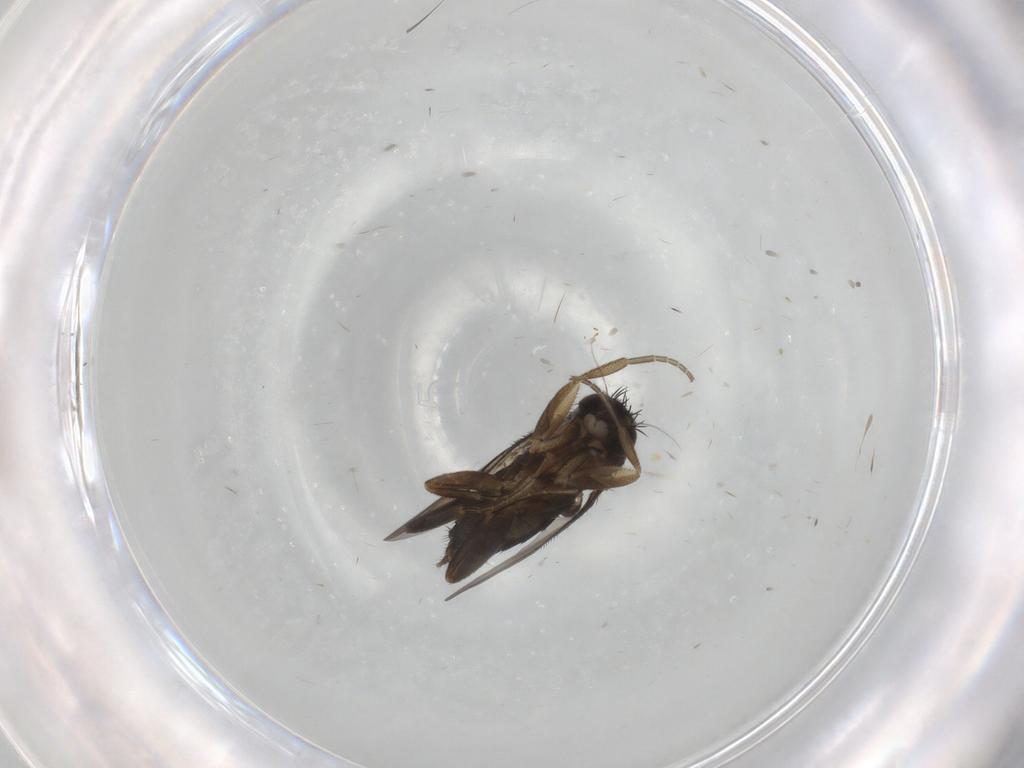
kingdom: Animalia
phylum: Arthropoda
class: Insecta
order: Diptera
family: Phoridae
